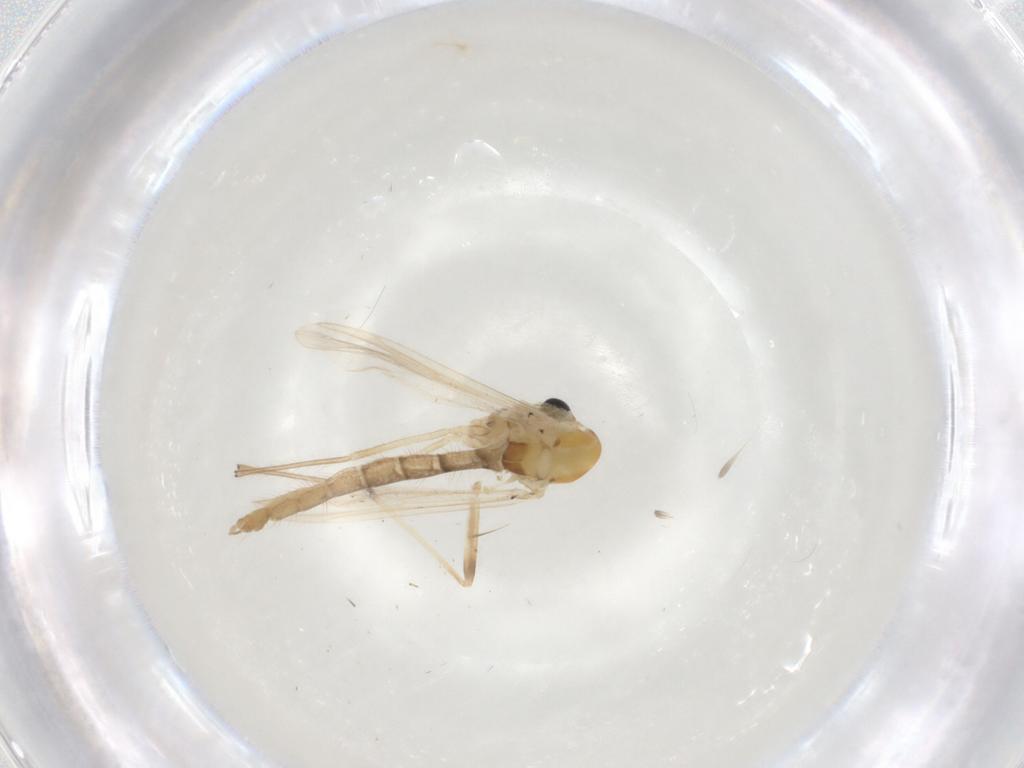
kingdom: Animalia
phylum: Arthropoda
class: Insecta
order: Diptera
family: Chironomidae
